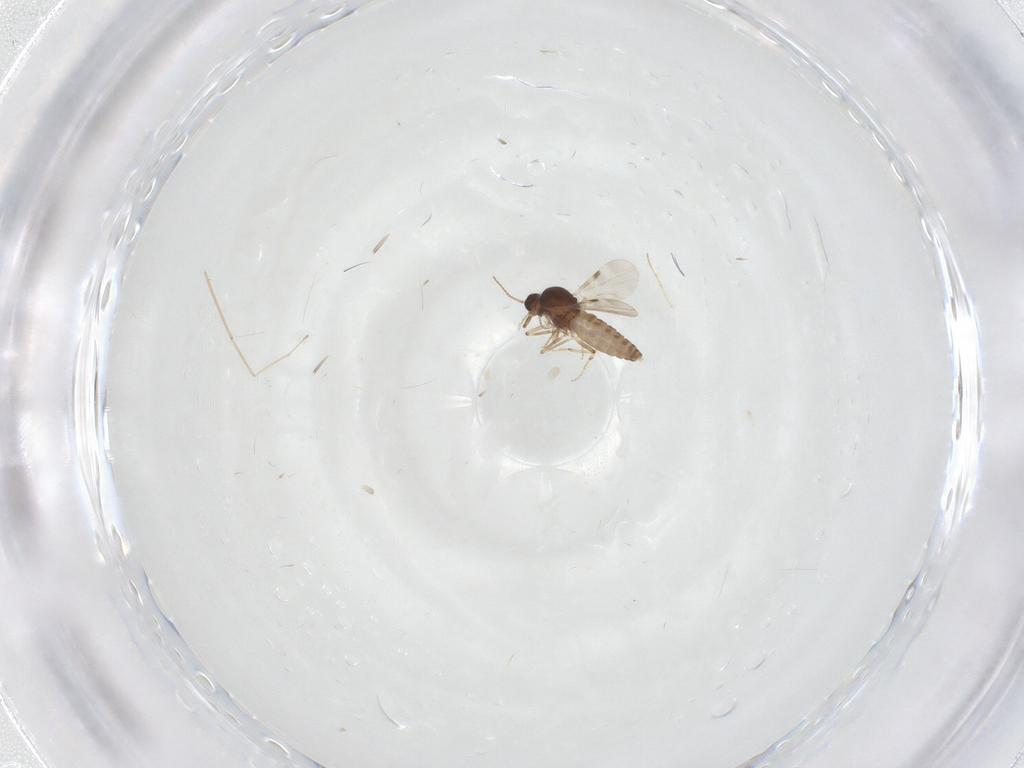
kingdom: Animalia
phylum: Arthropoda
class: Insecta
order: Diptera
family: Cecidomyiidae
